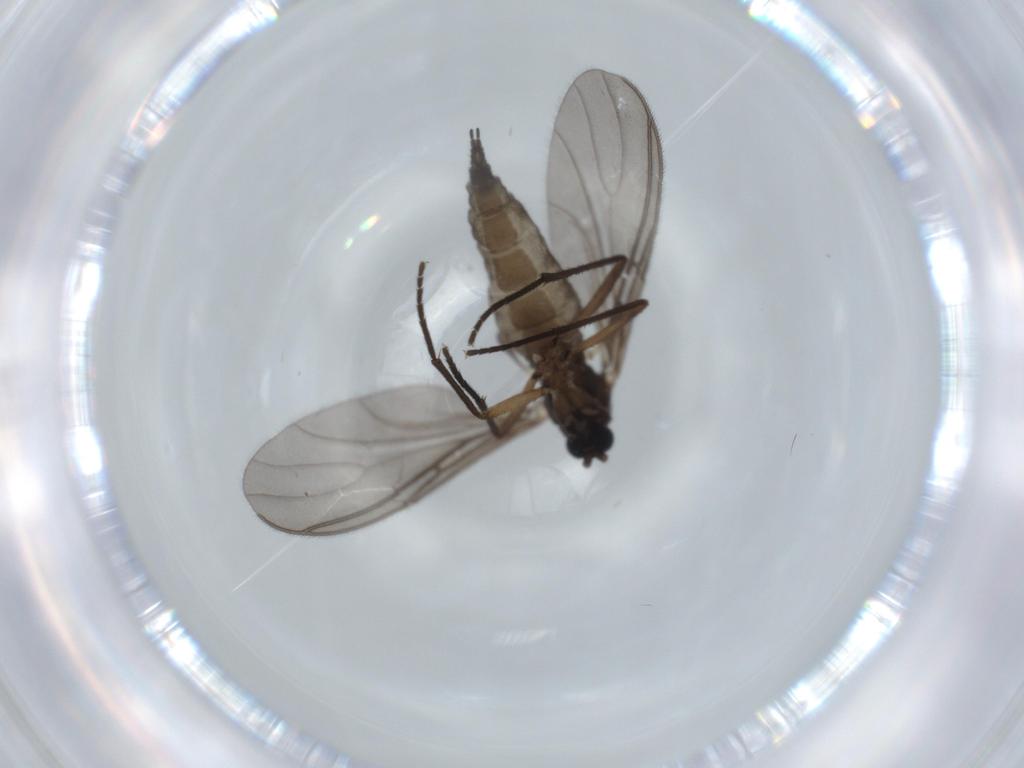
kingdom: Animalia
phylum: Arthropoda
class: Insecta
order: Diptera
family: Sciaridae
